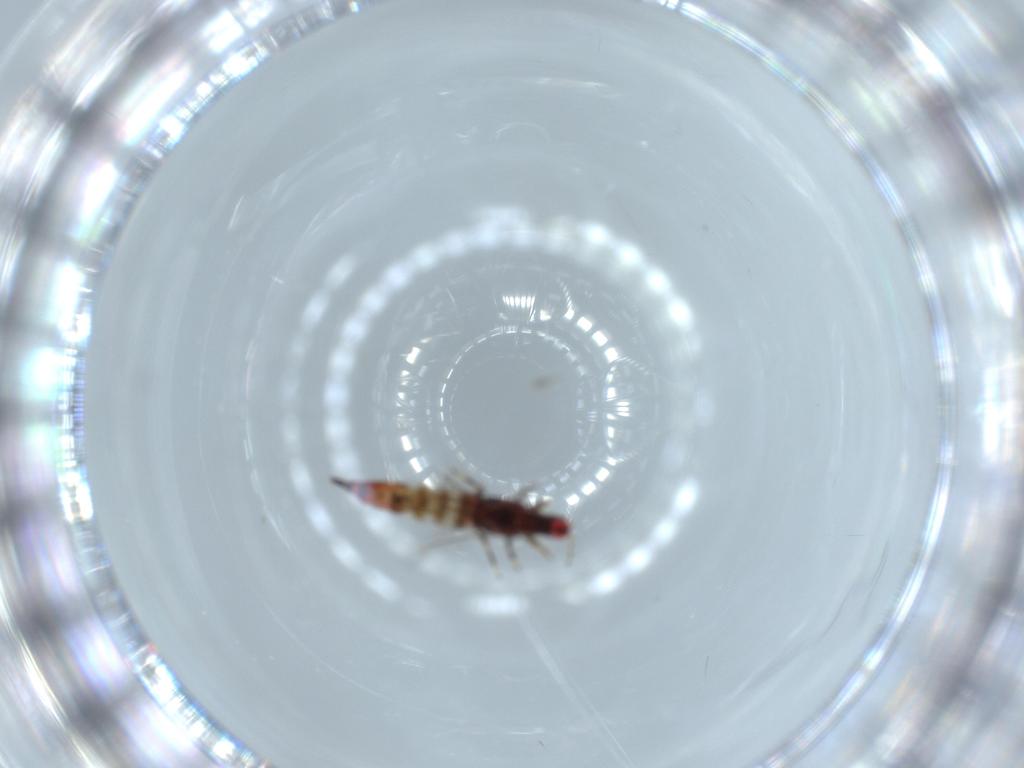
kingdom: Animalia
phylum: Arthropoda
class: Insecta
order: Thysanoptera
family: Phlaeothripidae
